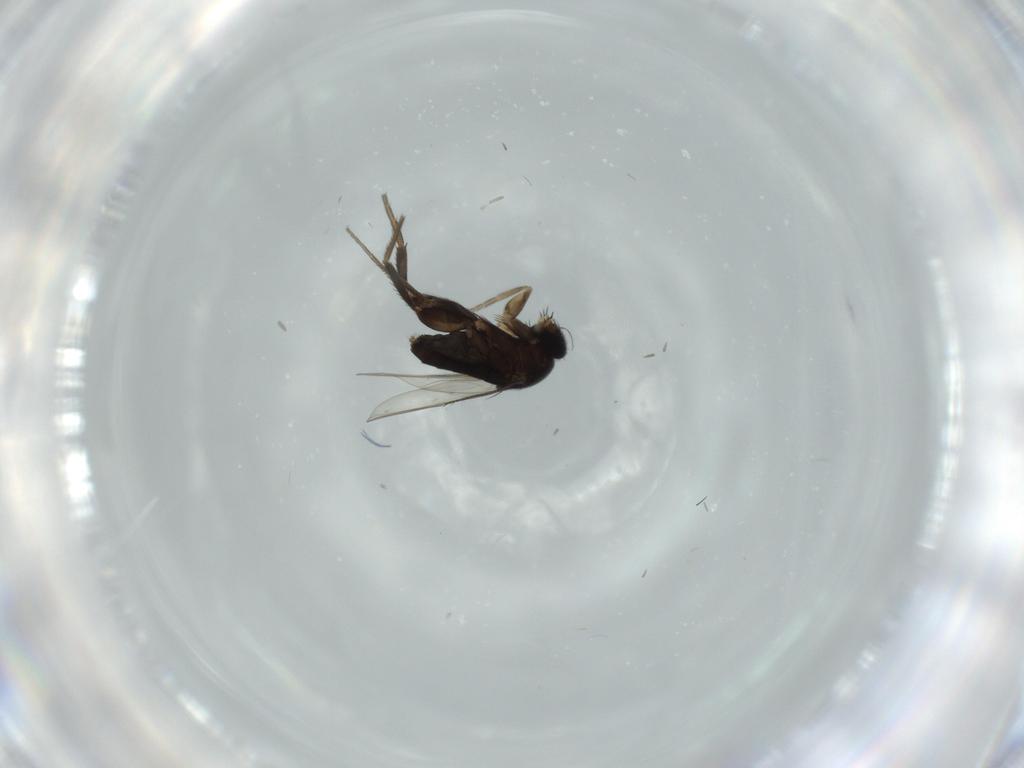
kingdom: Animalia
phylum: Arthropoda
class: Insecta
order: Diptera
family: Phoridae
